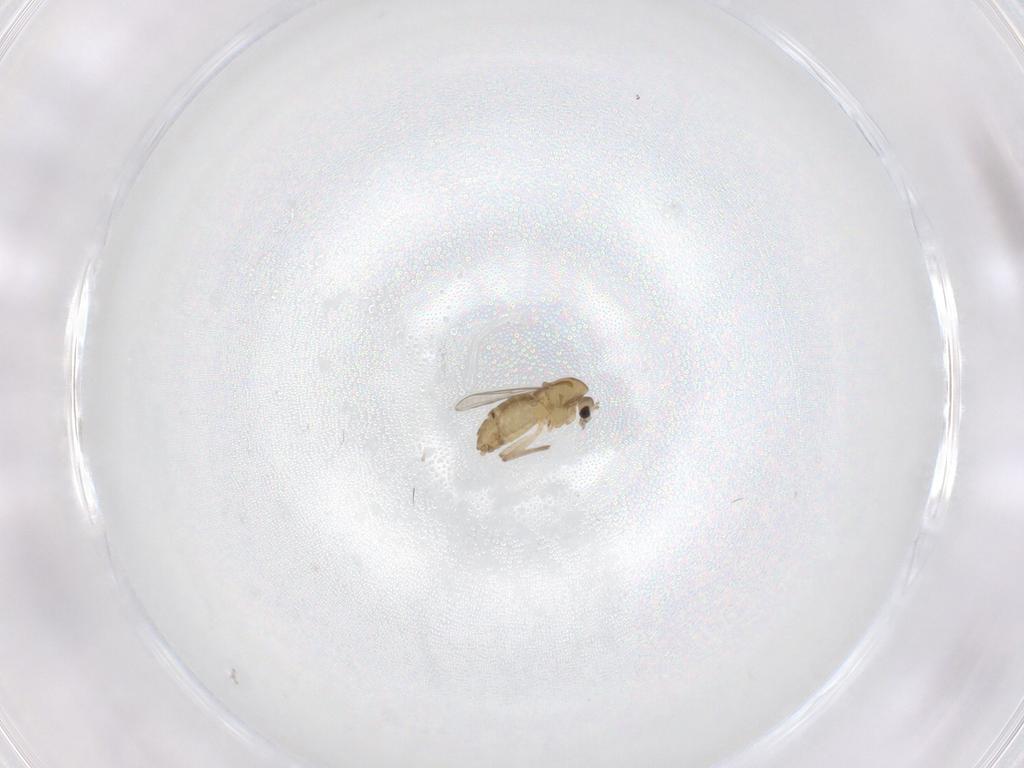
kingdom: Animalia
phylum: Arthropoda
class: Insecta
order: Diptera
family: Chironomidae
